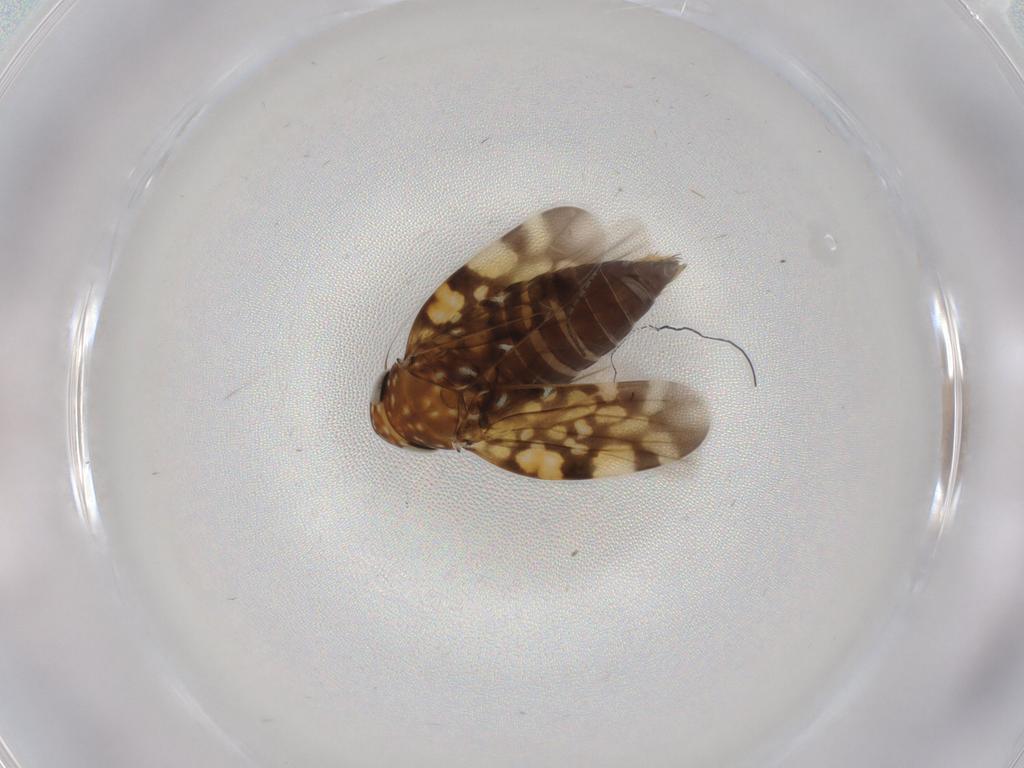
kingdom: Animalia
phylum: Arthropoda
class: Insecta
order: Hemiptera
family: Cicadellidae
